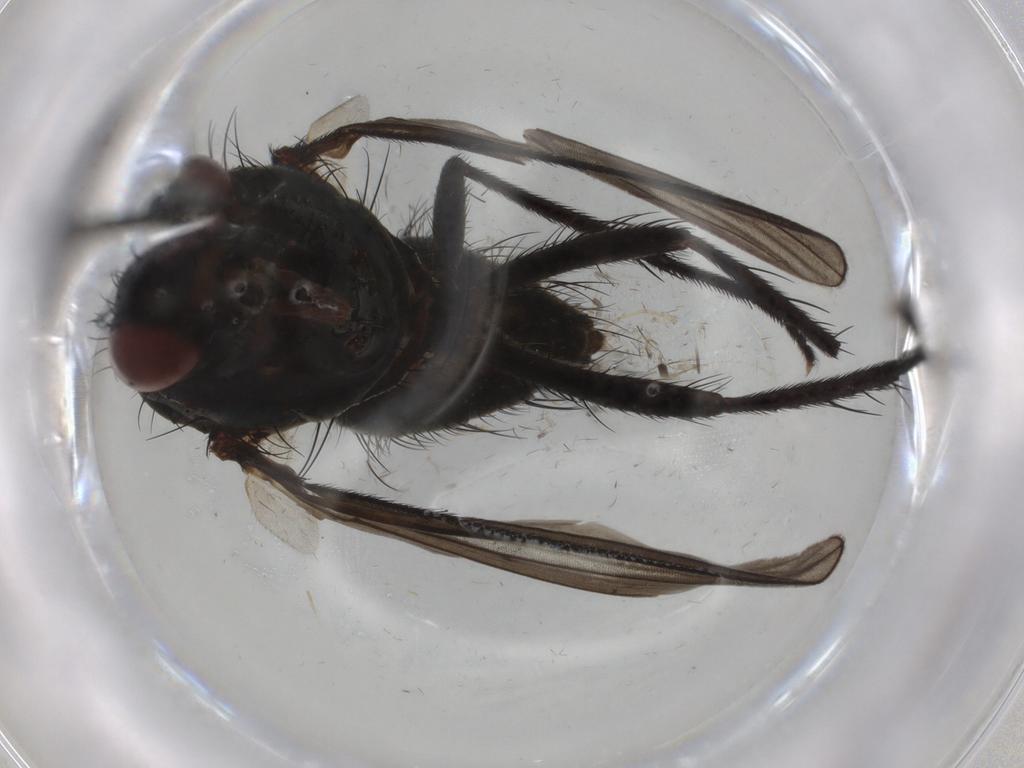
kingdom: Animalia
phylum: Arthropoda
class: Insecta
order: Diptera
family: Anthomyiidae
